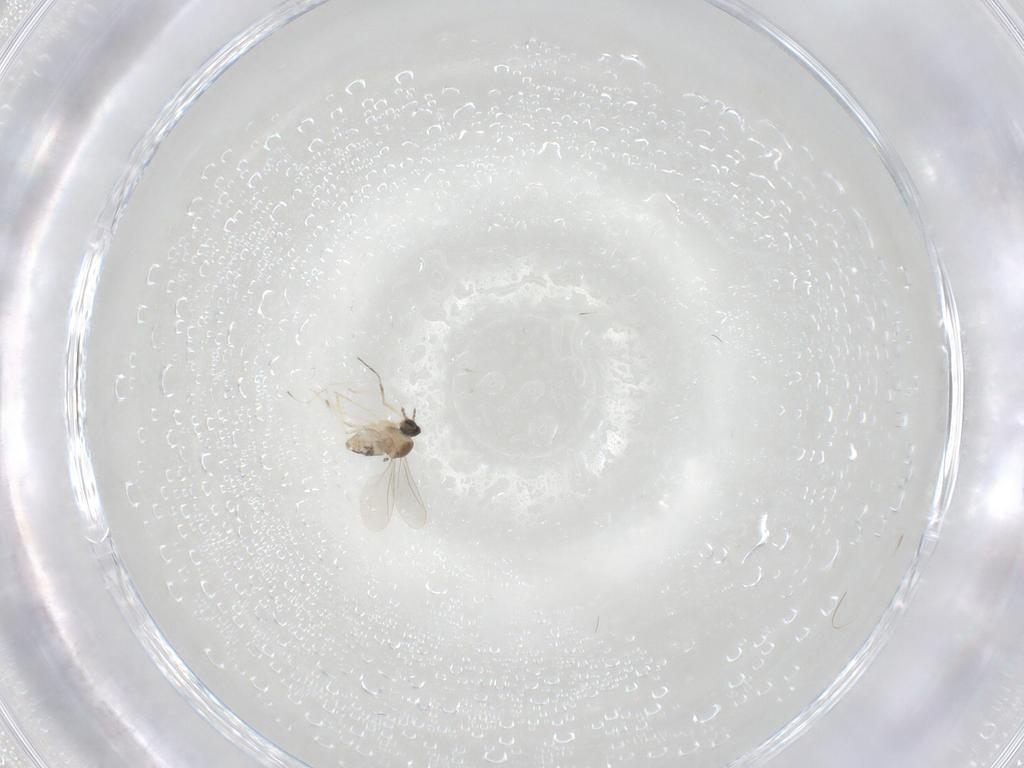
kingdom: Animalia
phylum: Arthropoda
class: Insecta
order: Diptera
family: Cecidomyiidae
